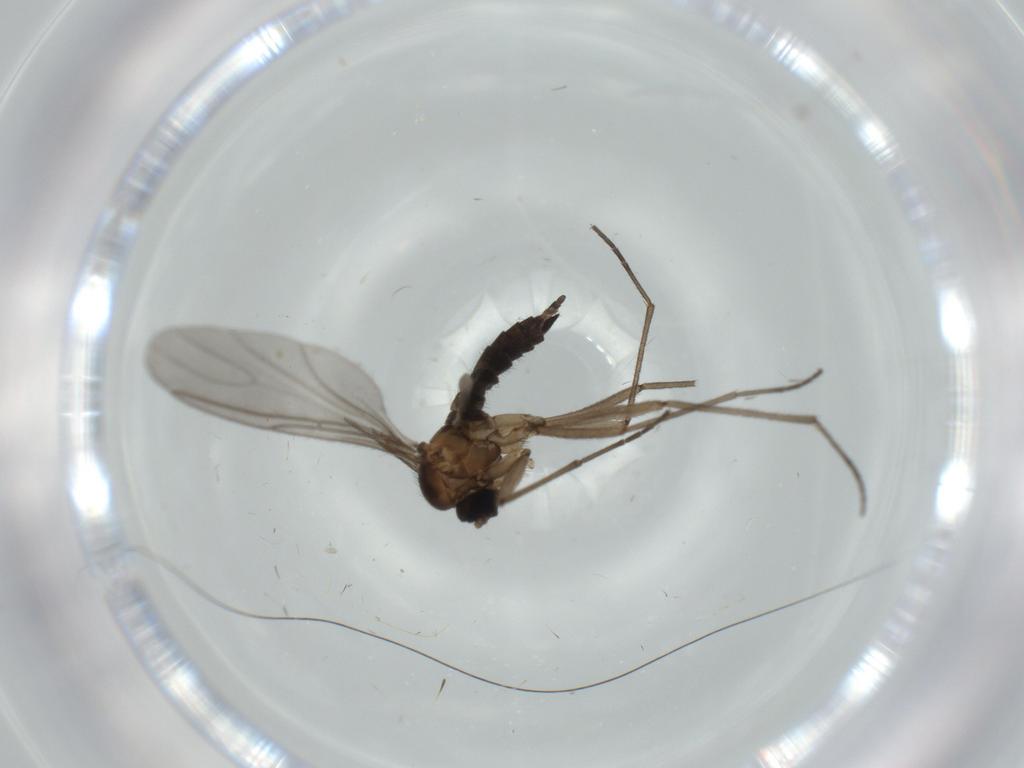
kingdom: Animalia
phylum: Arthropoda
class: Insecta
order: Diptera
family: Sciaridae
